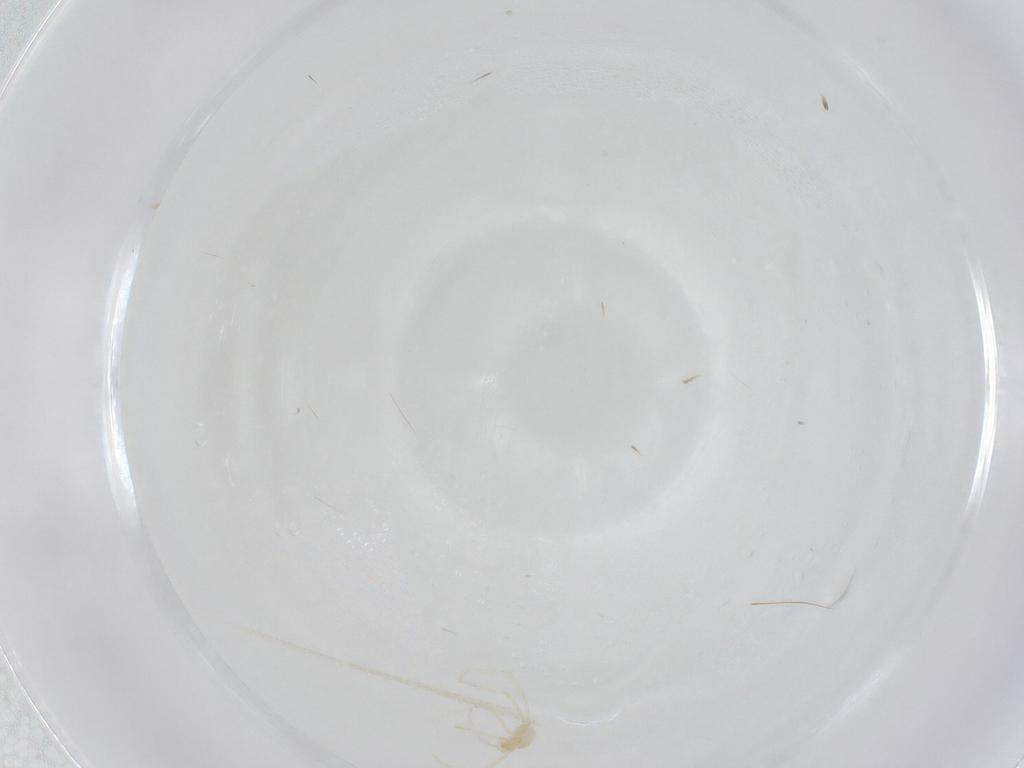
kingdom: Animalia
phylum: Arthropoda
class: Arachnida
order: Trombidiformes
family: Erythraeidae
